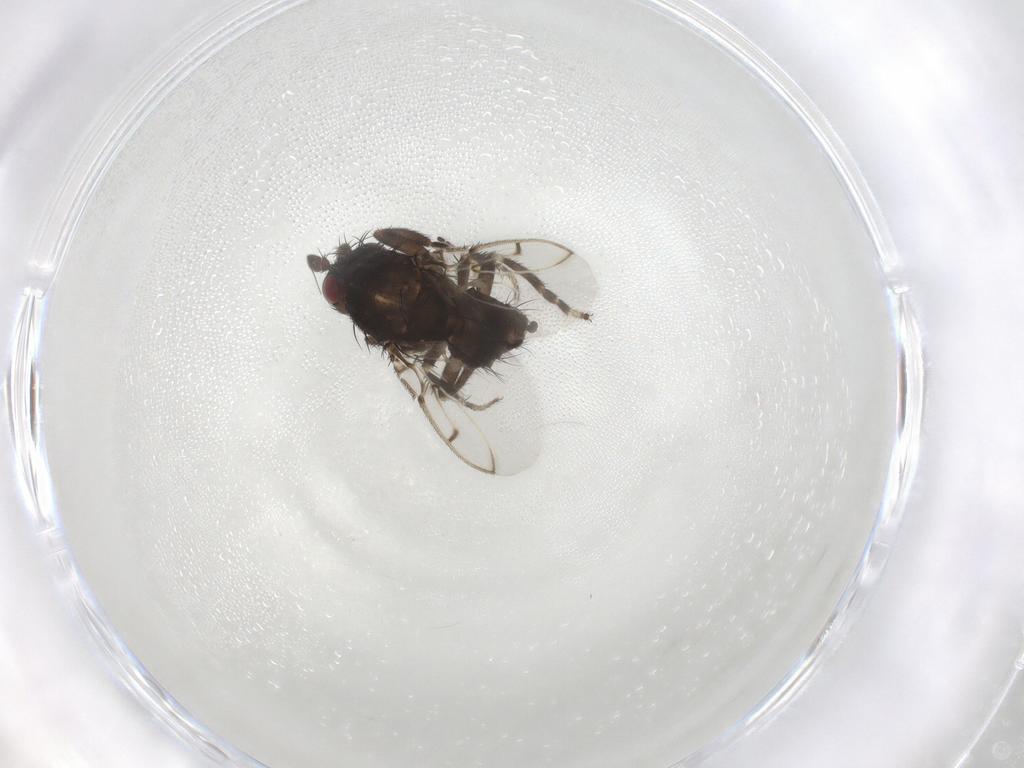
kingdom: Animalia
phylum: Arthropoda
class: Insecta
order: Diptera
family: Sphaeroceridae
